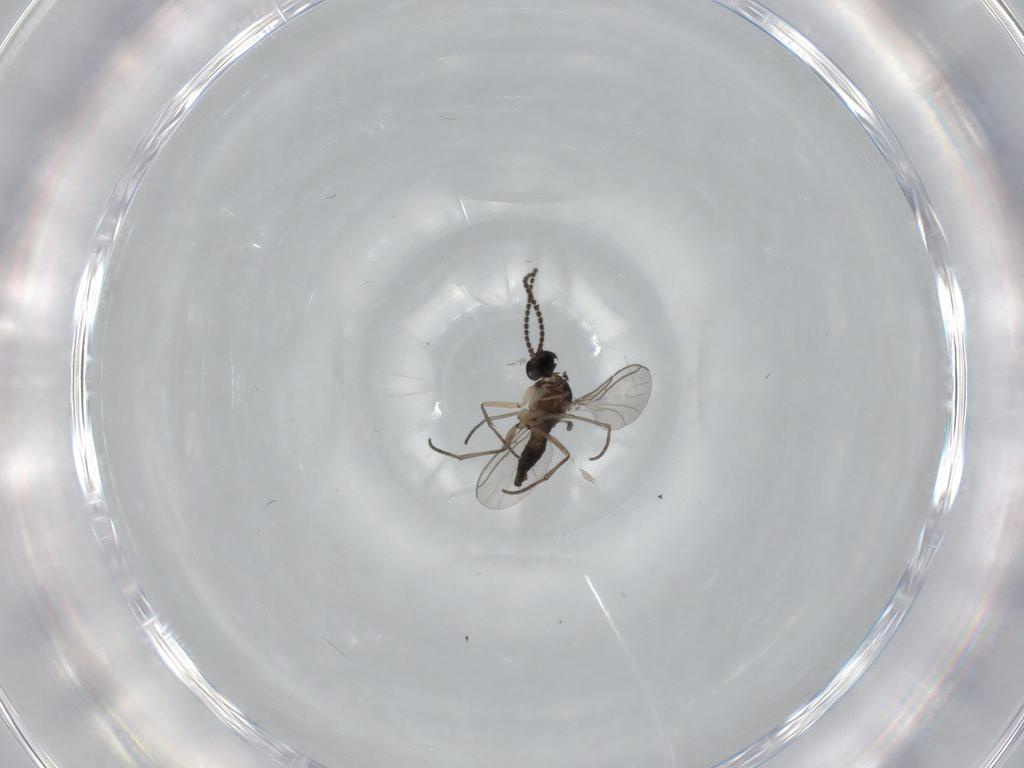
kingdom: Animalia
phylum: Arthropoda
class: Insecta
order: Diptera
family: Sciaridae
